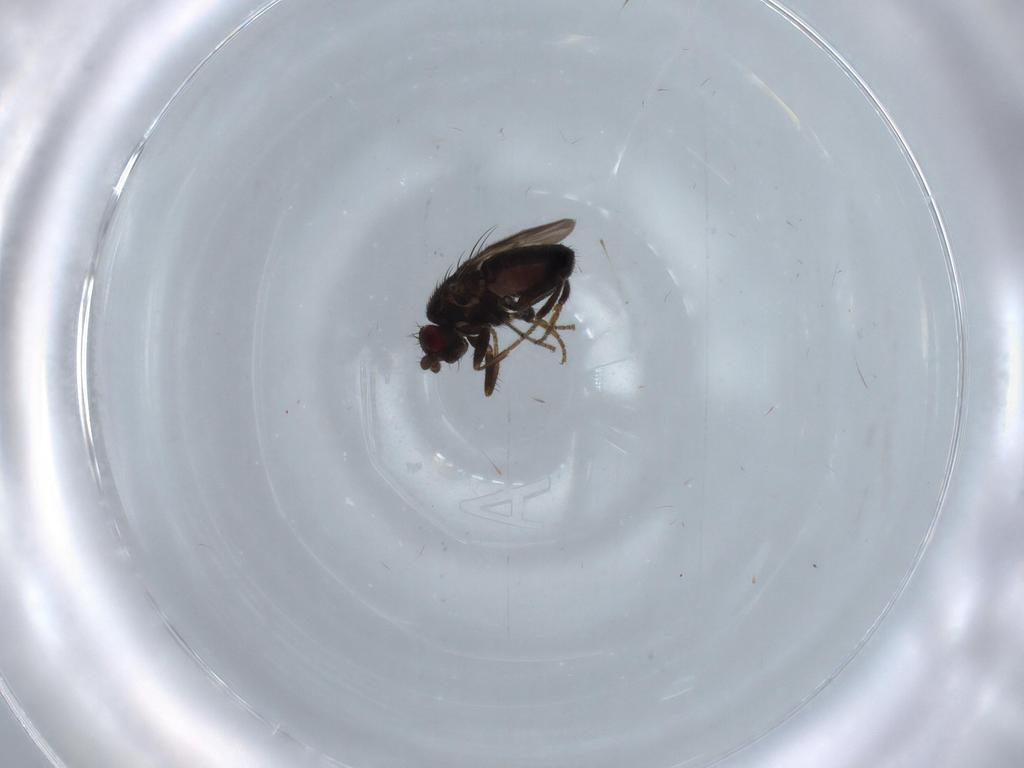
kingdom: Animalia
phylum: Arthropoda
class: Insecta
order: Diptera
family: Sphaeroceridae
